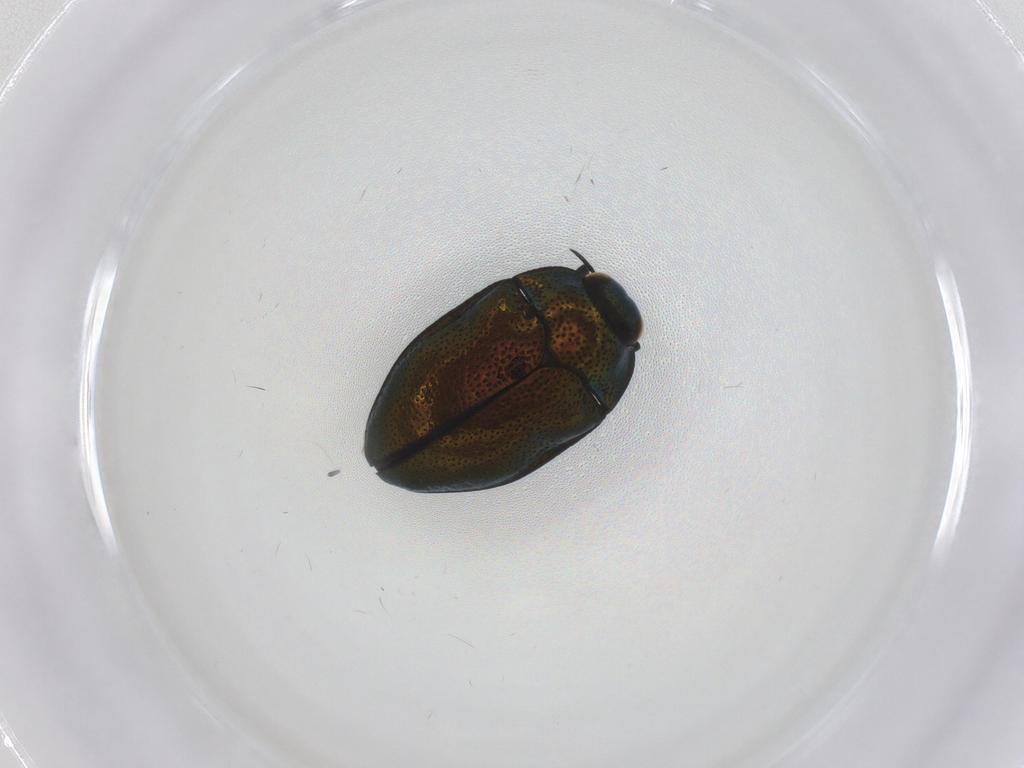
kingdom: Animalia
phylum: Arthropoda
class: Insecta
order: Coleoptera
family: Buprestidae
